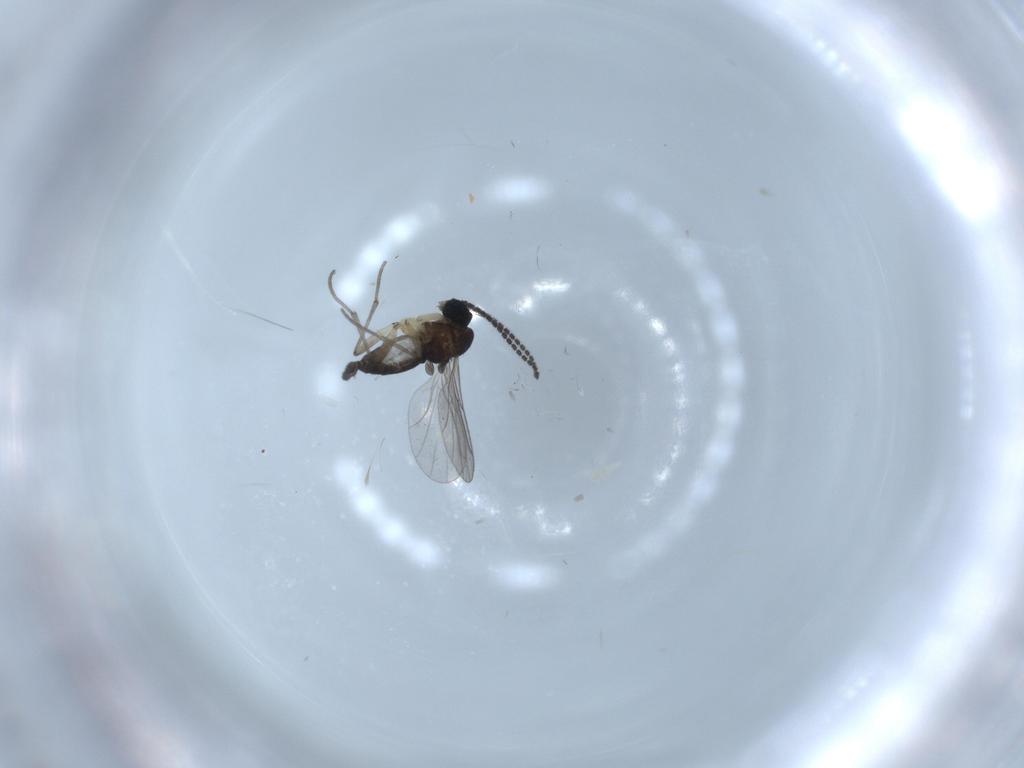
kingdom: Animalia
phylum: Arthropoda
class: Insecta
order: Diptera
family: Sciaridae
